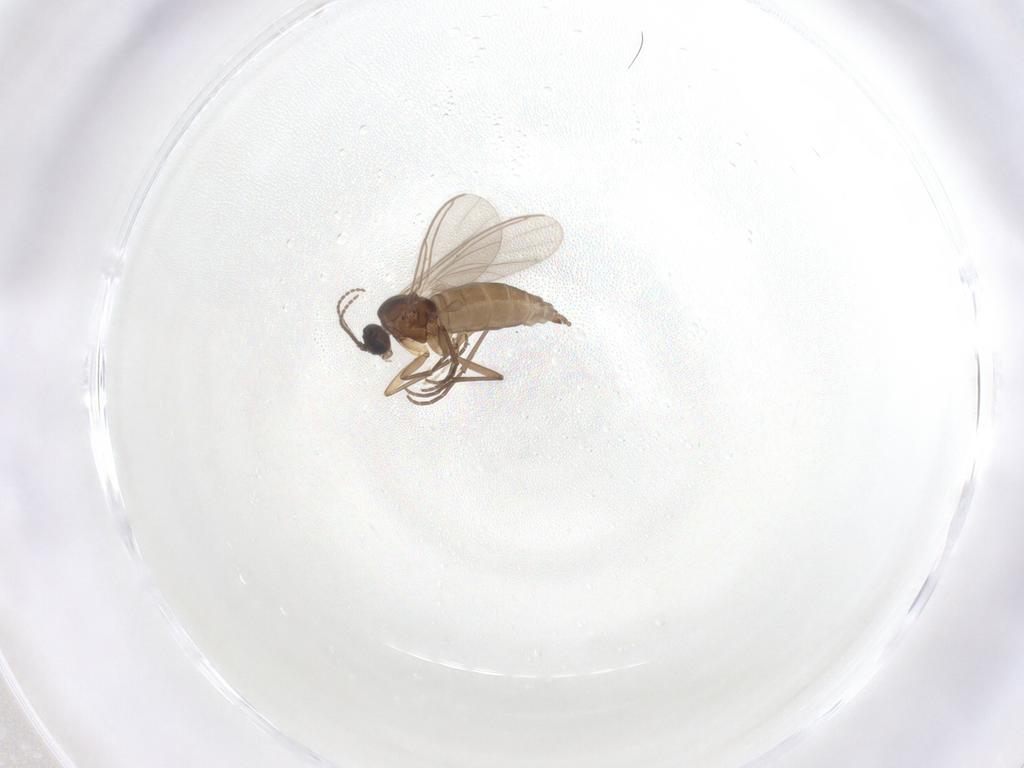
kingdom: Animalia
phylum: Arthropoda
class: Insecta
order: Diptera
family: Sciaridae
